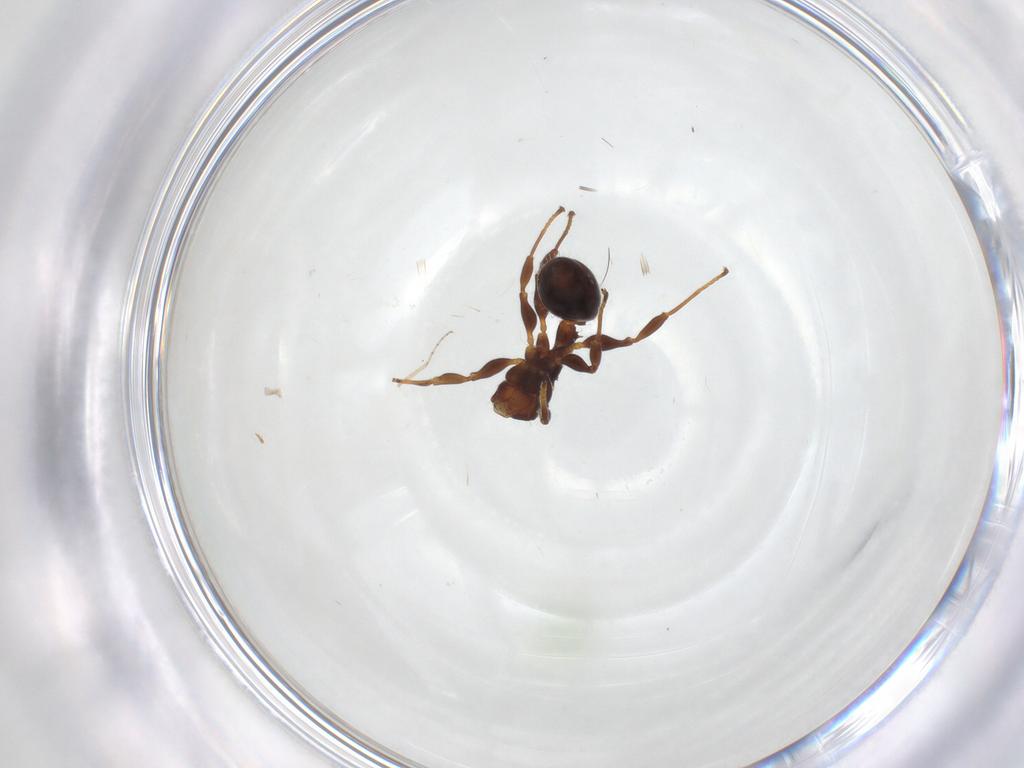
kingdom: Animalia
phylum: Arthropoda
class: Insecta
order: Hymenoptera
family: Formicidae
